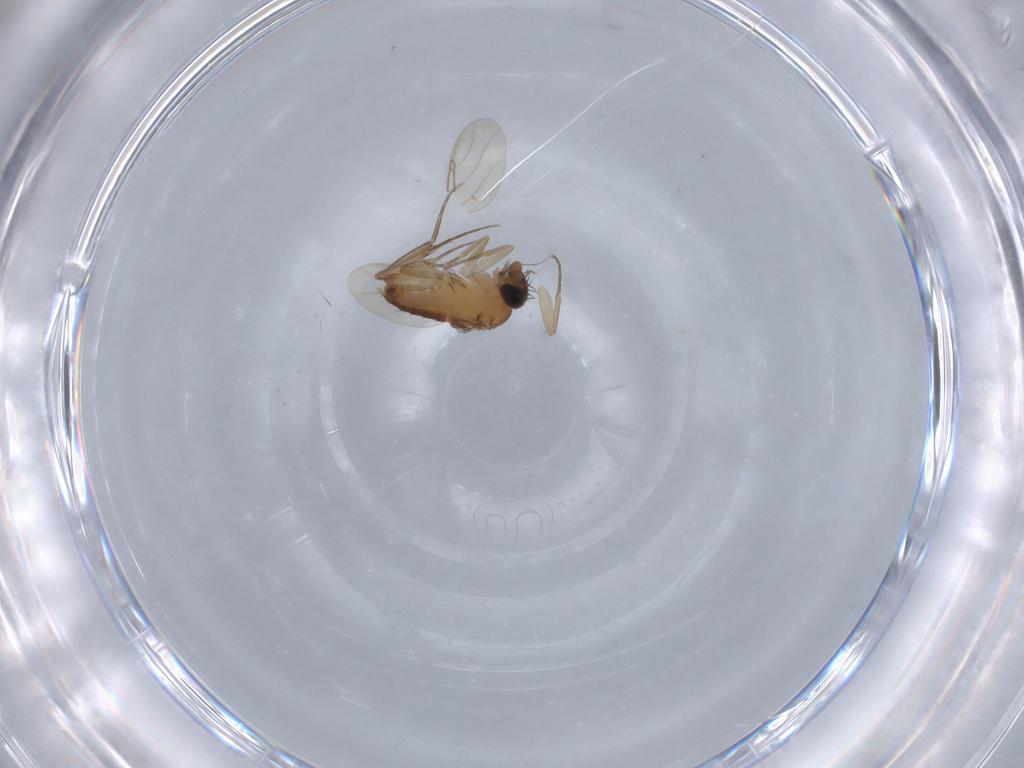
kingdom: Animalia
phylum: Arthropoda
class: Insecta
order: Diptera
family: Phoridae
